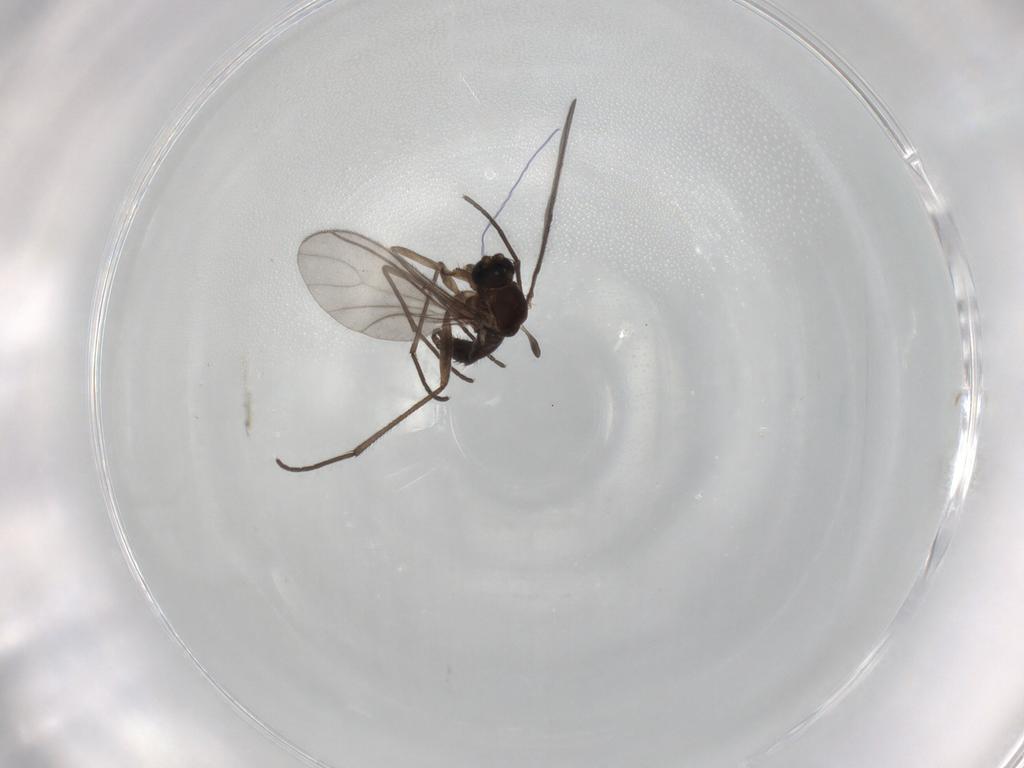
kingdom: Animalia
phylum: Arthropoda
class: Insecta
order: Diptera
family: Sciaridae
